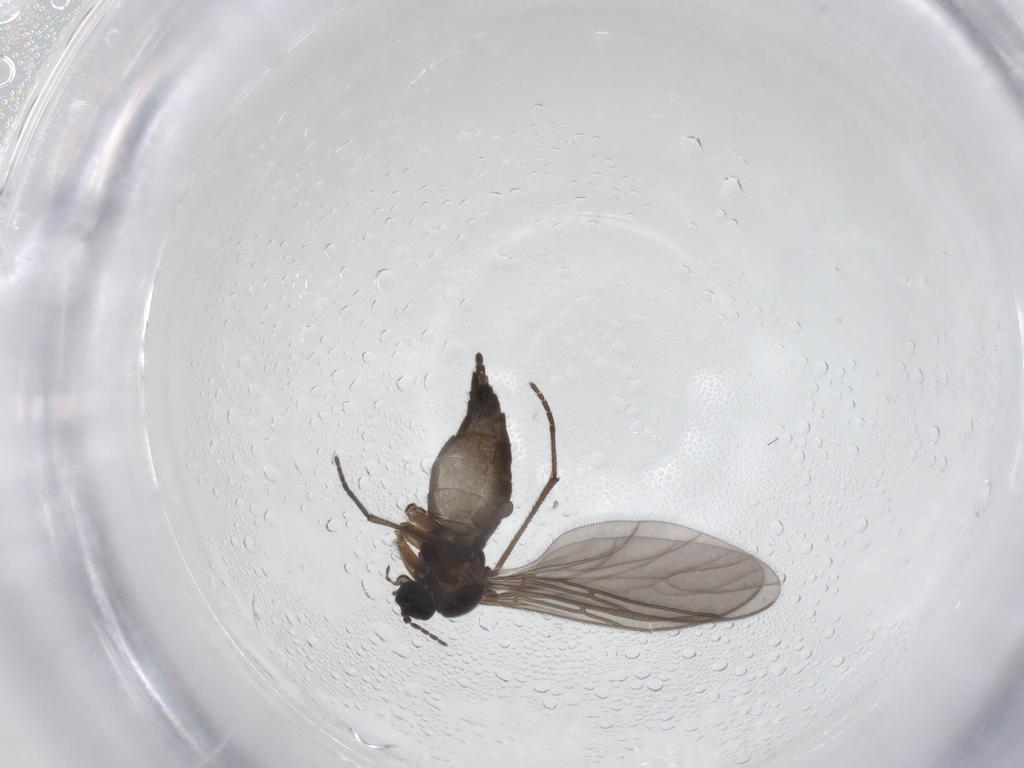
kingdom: Animalia
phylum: Arthropoda
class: Insecta
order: Diptera
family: Sciaridae
